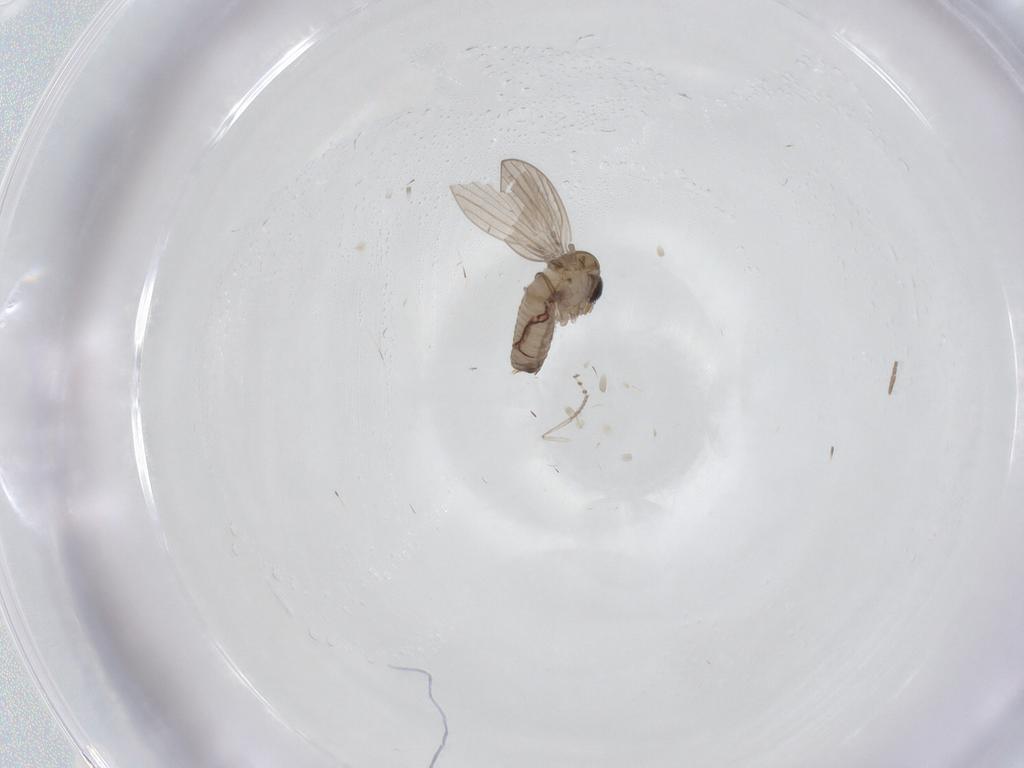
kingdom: Animalia
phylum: Arthropoda
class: Insecta
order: Diptera
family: Psychodidae
